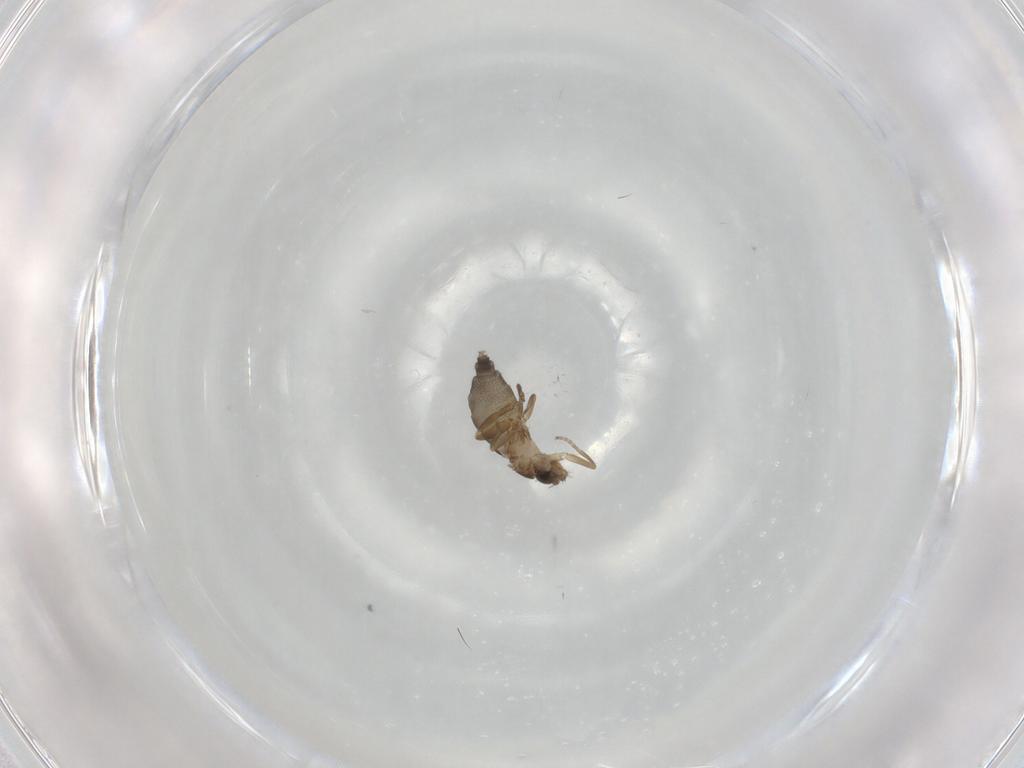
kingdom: Animalia
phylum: Arthropoda
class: Insecta
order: Diptera
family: Phoridae
